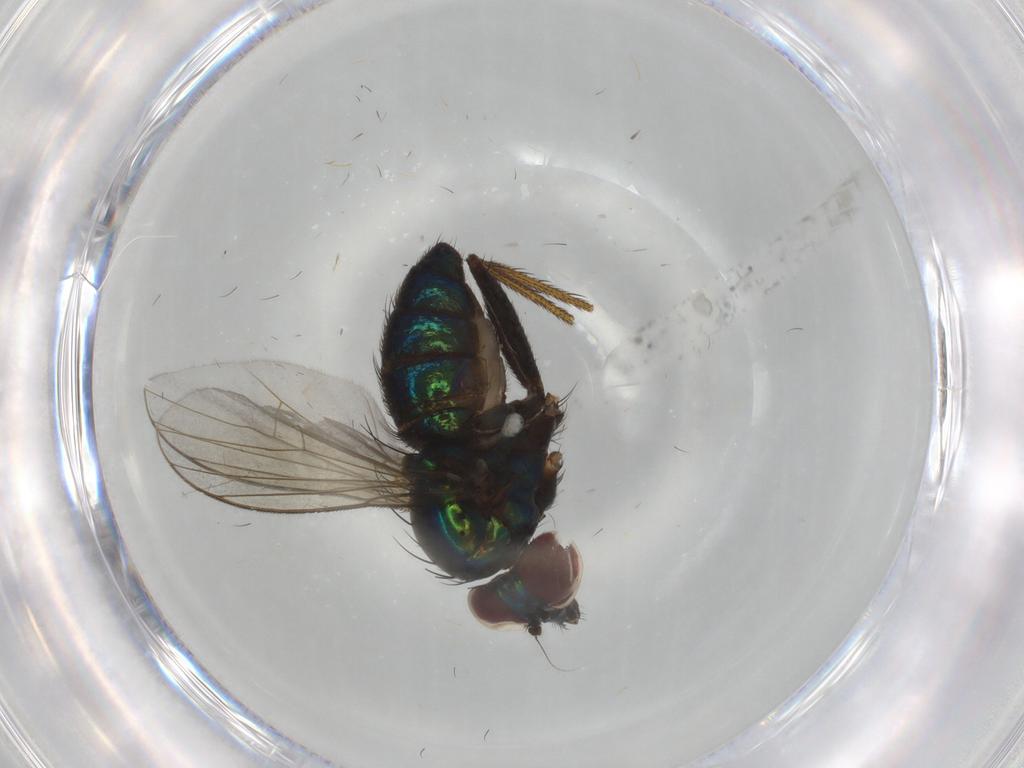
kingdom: Animalia
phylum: Arthropoda
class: Insecta
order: Diptera
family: Dolichopodidae
